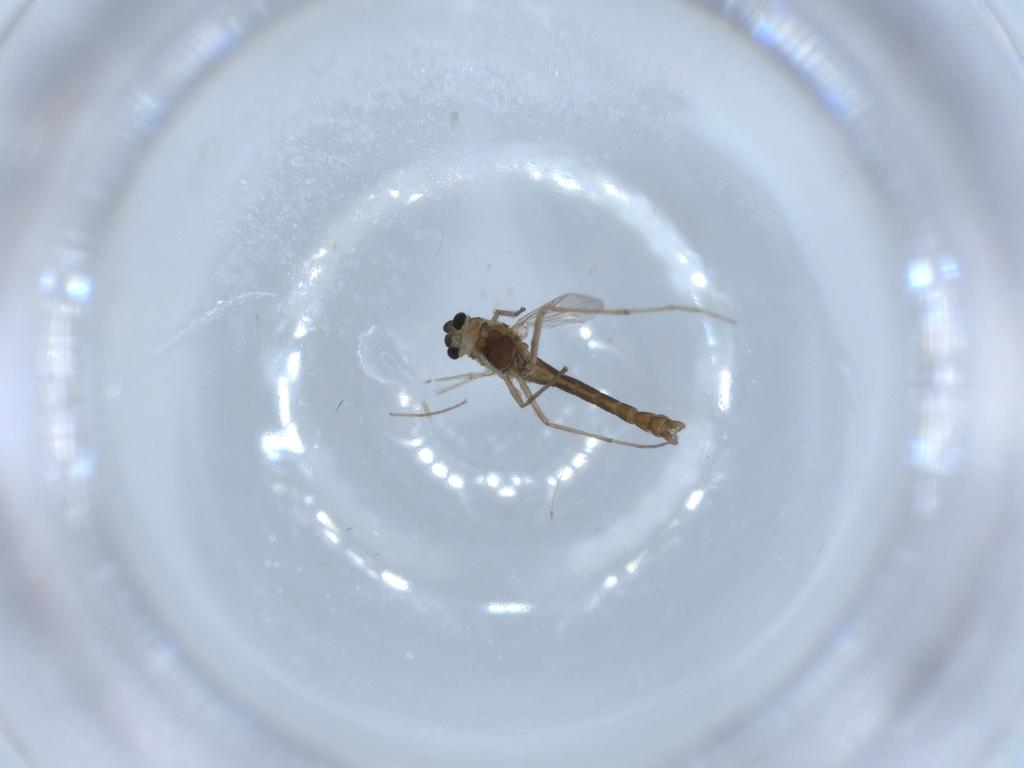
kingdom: Animalia
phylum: Arthropoda
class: Insecta
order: Diptera
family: Chironomidae
